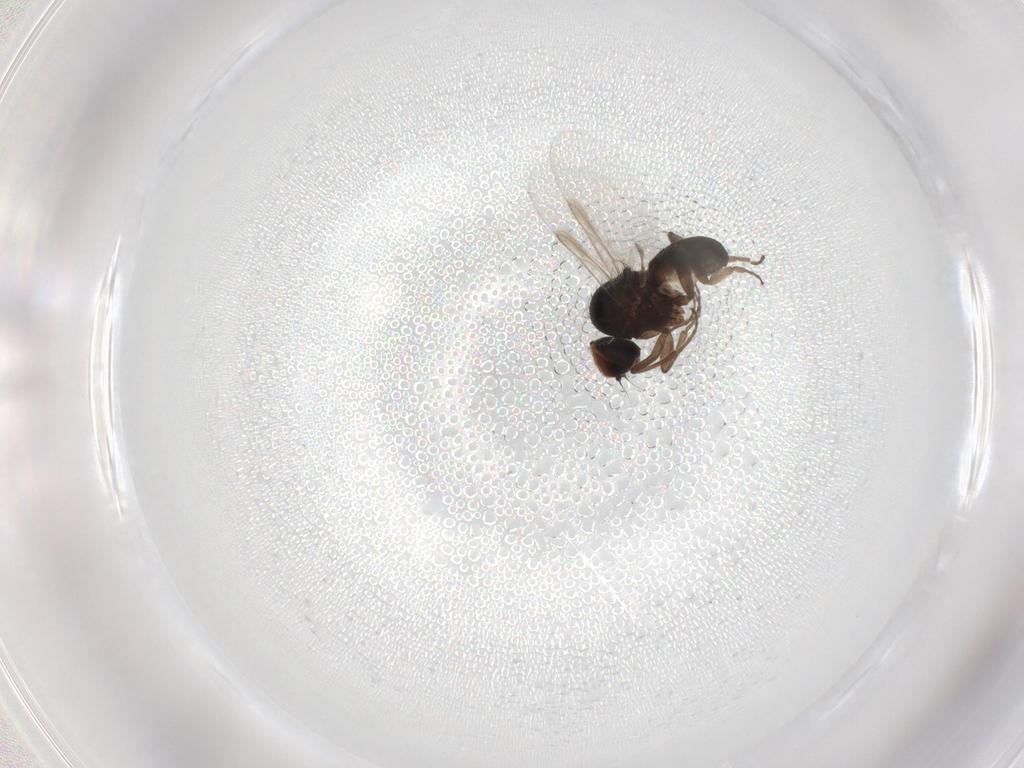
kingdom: Animalia
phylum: Arthropoda
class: Insecta
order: Diptera
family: Platypezidae
